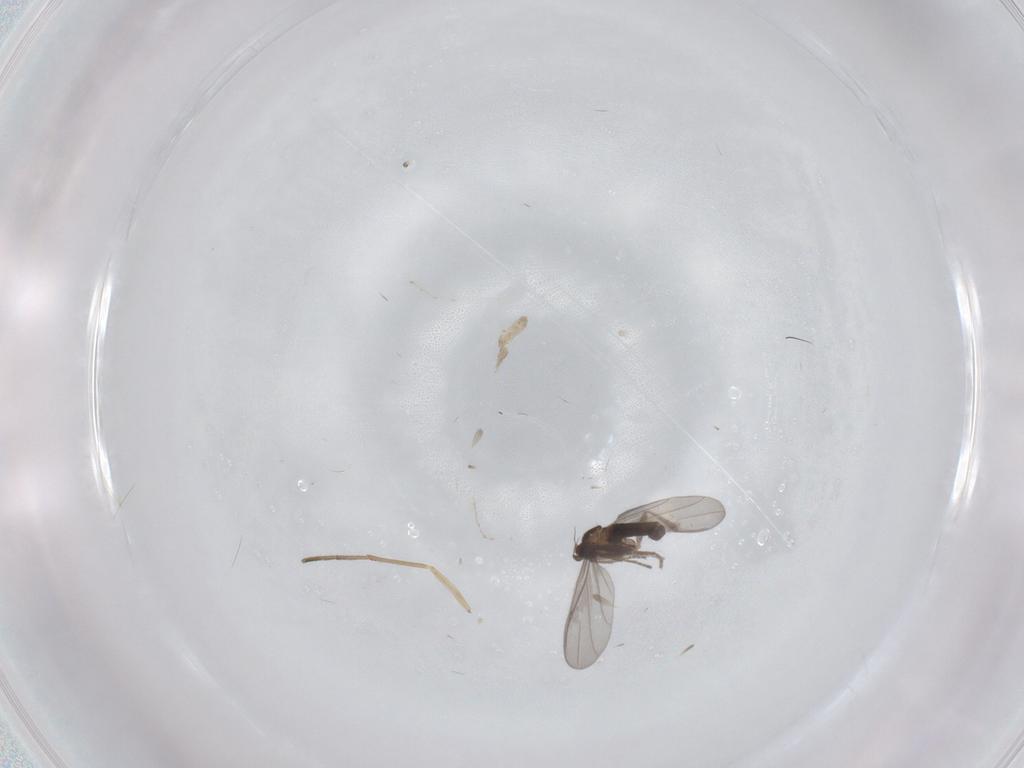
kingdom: Animalia
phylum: Arthropoda
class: Insecta
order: Diptera
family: Phoridae
